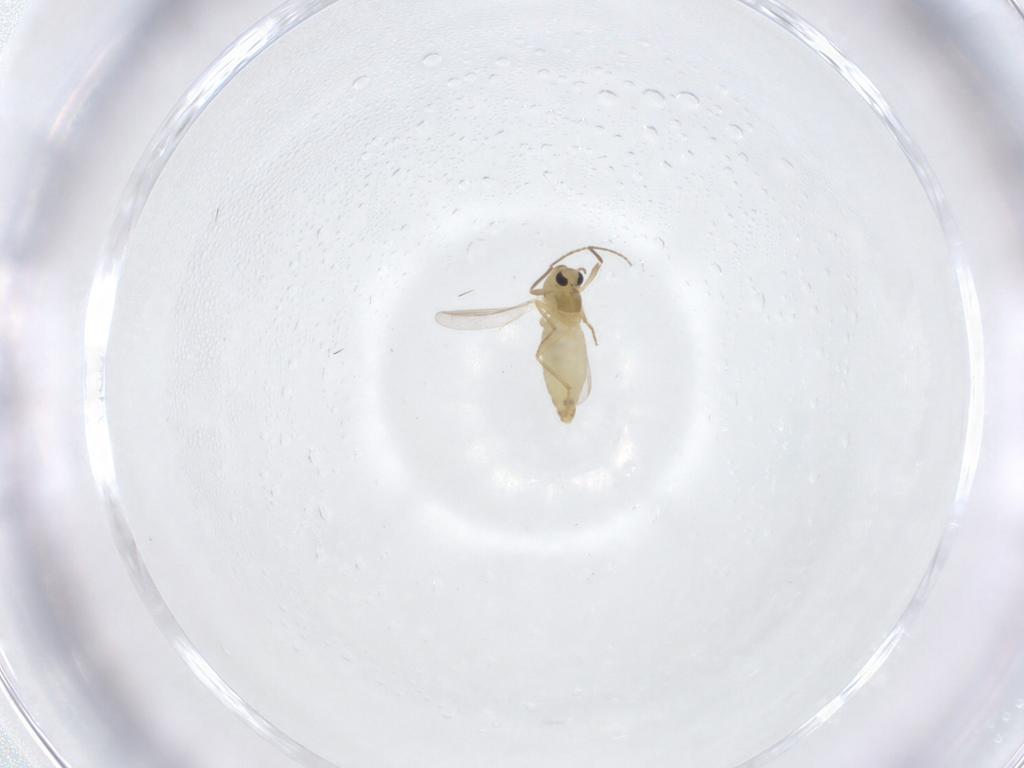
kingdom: Animalia
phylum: Arthropoda
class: Insecta
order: Diptera
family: Chironomidae
